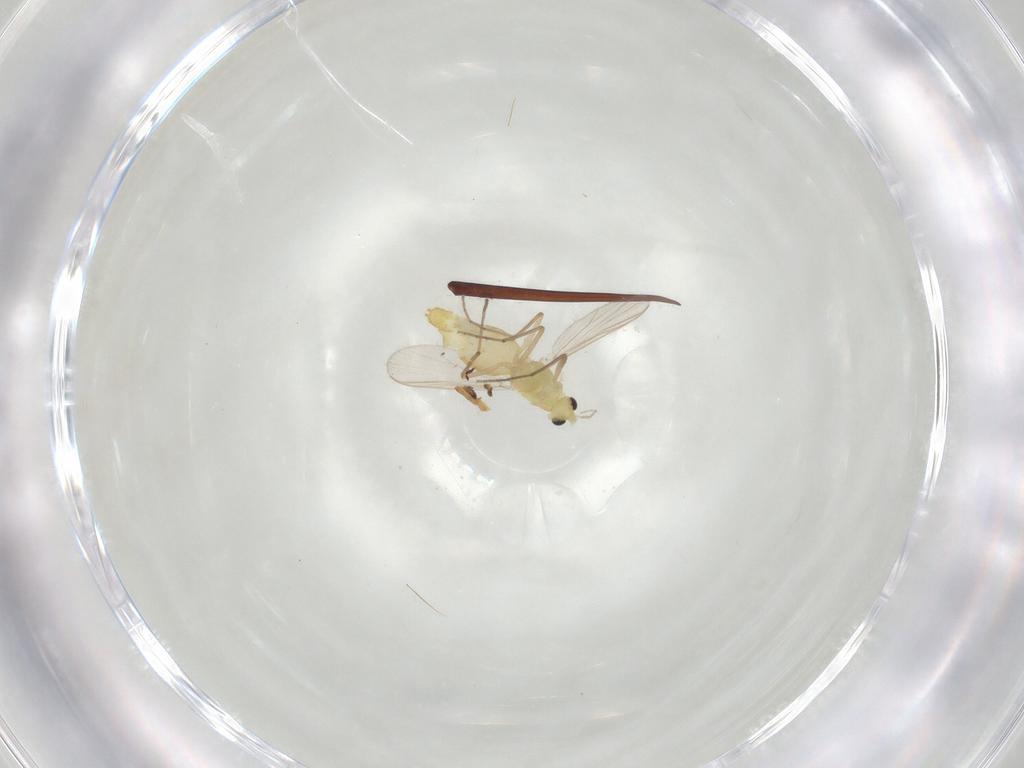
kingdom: Animalia
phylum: Arthropoda
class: Insecta
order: Diptera
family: Chironomidae
